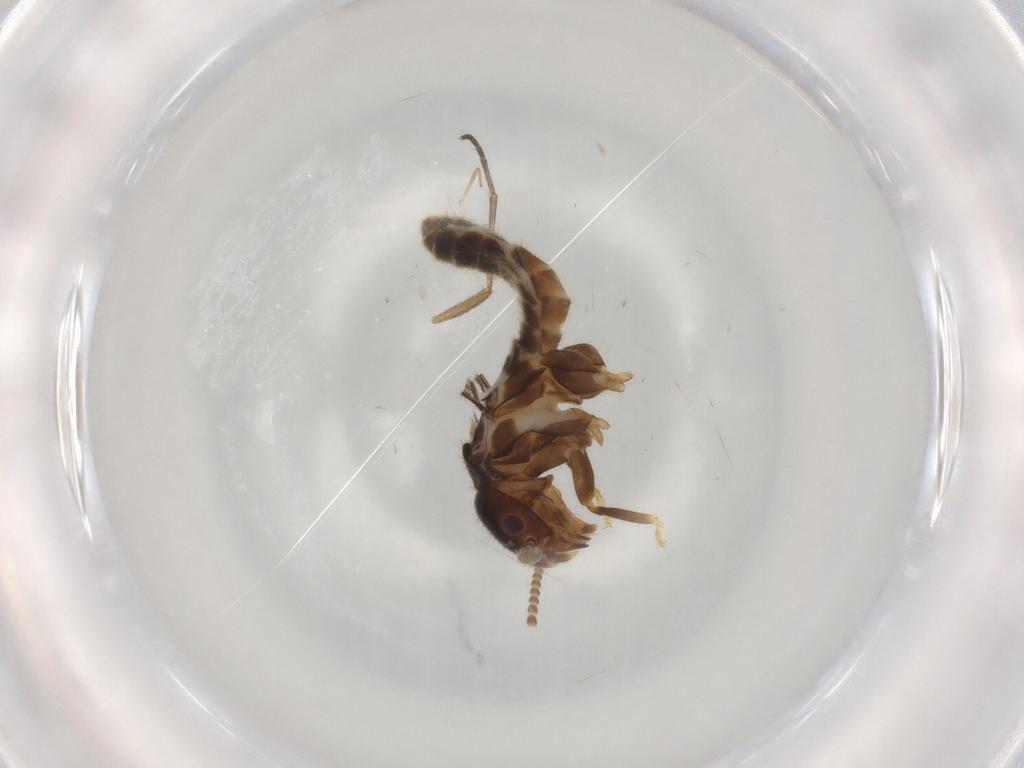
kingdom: Animalia
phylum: Arthropoda
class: Insecta
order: Blattodea
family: Termitidae
